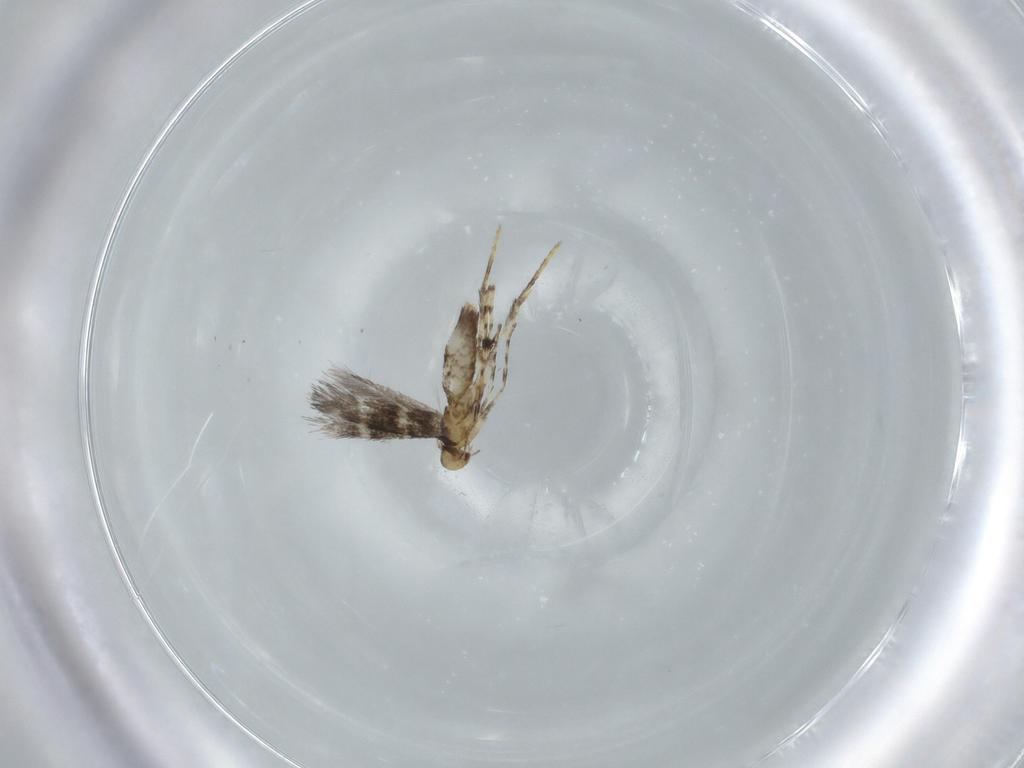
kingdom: Animalia
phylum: Arthropoda
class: Insecta
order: Lepidoptera
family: Gracillariidae
